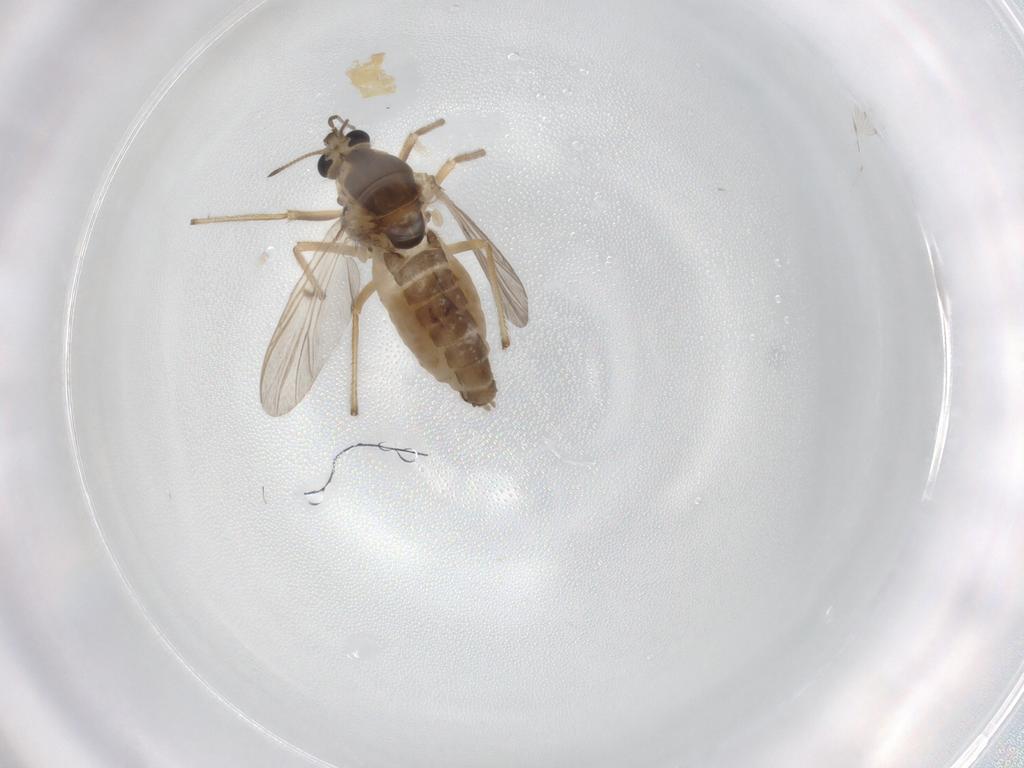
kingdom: Animalia
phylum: Arthropoda
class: Insecta
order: Diptera
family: Chironomidae
